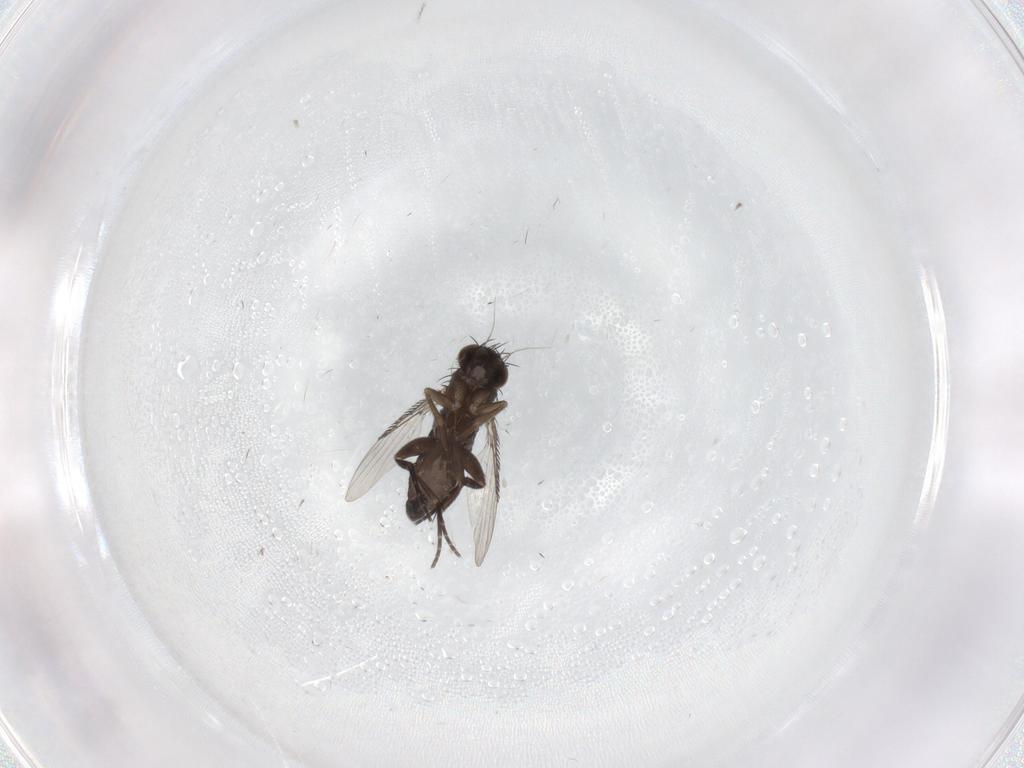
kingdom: Animalia
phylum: Arthropoda
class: Insecta
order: Diptera
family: Phoridae
